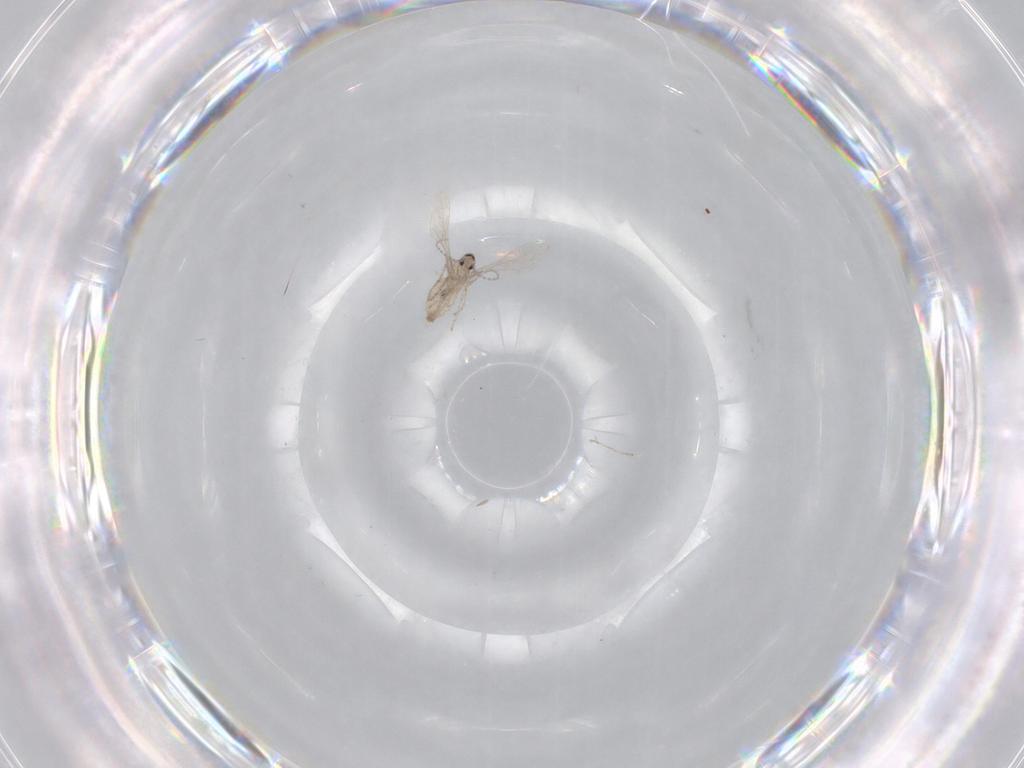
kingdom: Animalia
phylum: Arthropoda
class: Insecta
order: Diptera
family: Cecidomyiidae
